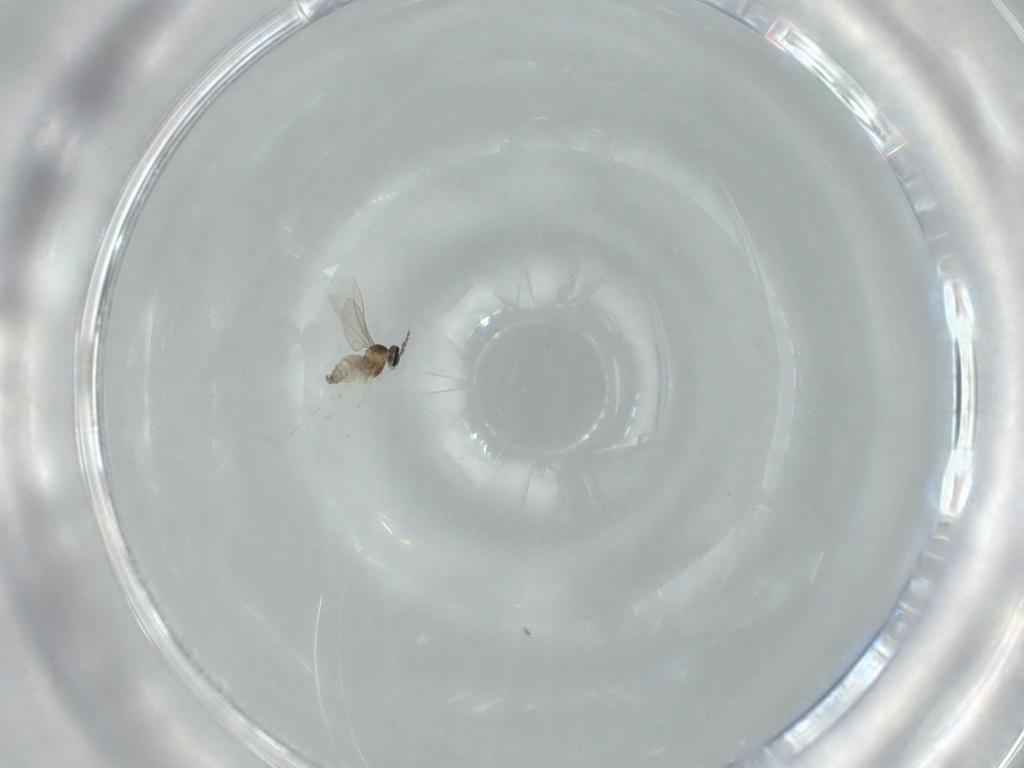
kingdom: Animalia
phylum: Arthropoda
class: Insecta
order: Diptera
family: Cecidomyiidae
